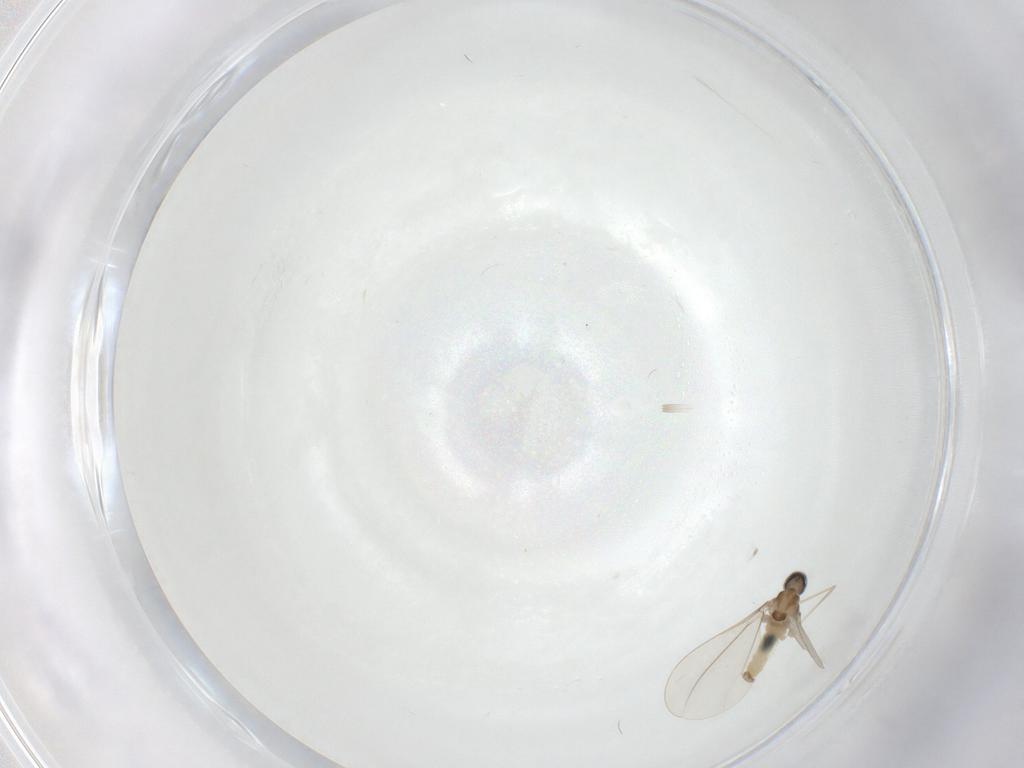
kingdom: Animalia
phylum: Arthropoda
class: Insecta
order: Diptera
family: Cecidomyiidae
